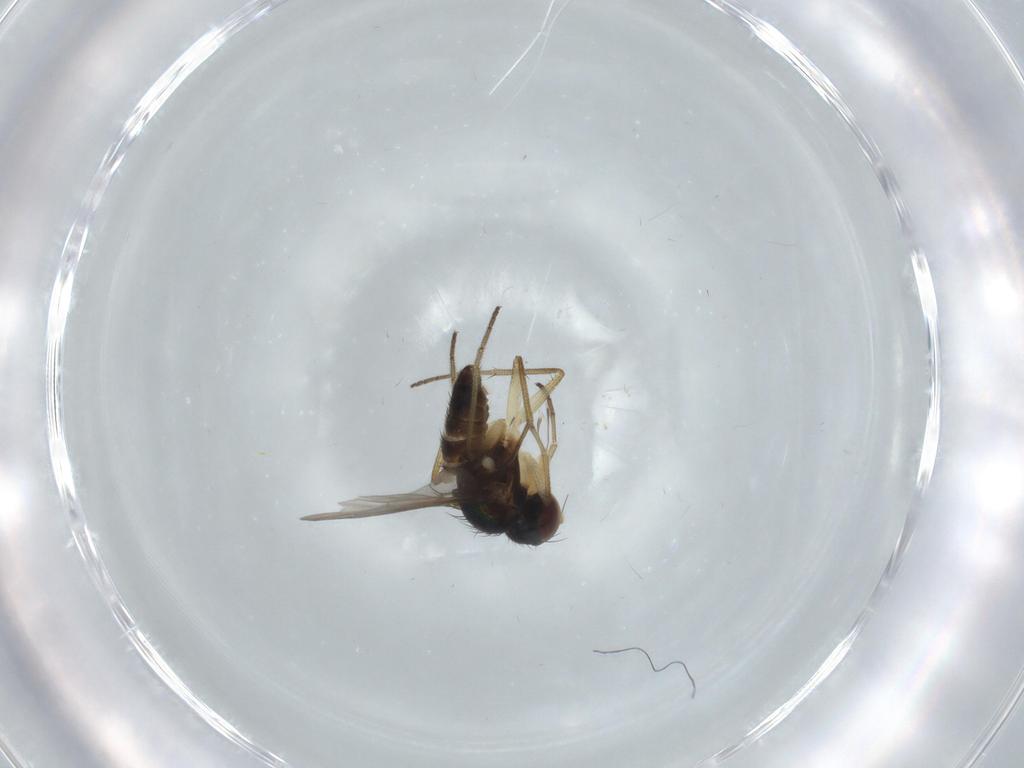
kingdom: Animalia
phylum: Arthropoda
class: Insecta
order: Diptera
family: Dolichopodidae
